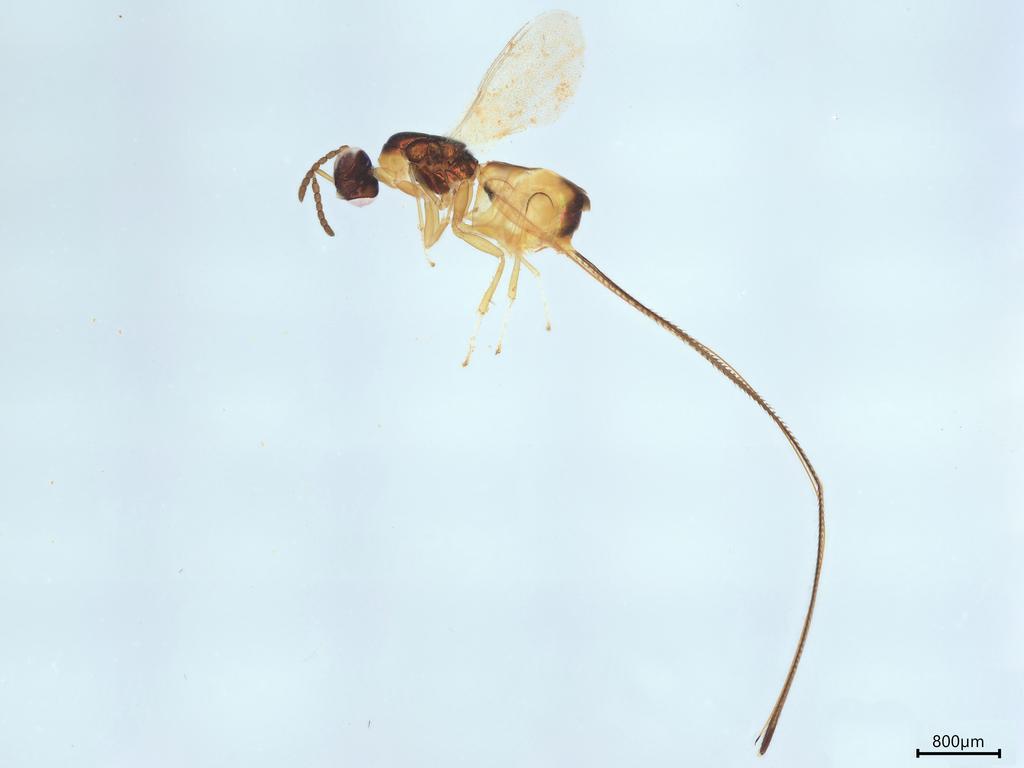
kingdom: Animalia
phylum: Arthropoda
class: Insecta
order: Hymenoptera
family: Pteromalidae
